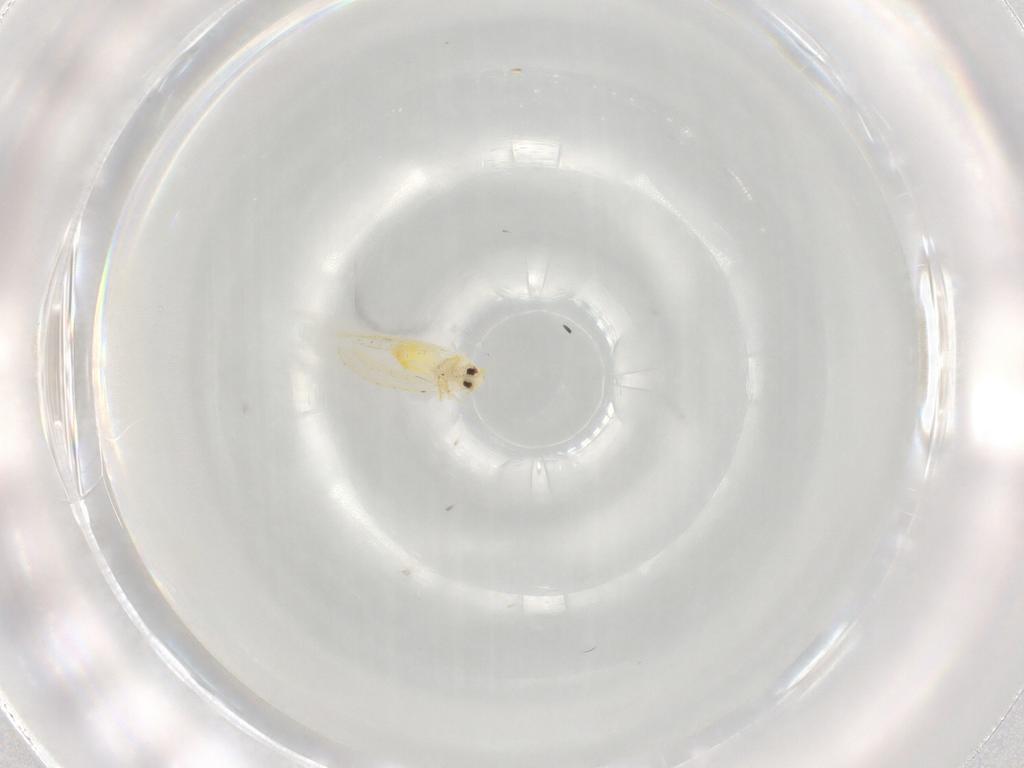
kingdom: Animalia
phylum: Arthropoda
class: Insecta
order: Hemiptera
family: Aleyrodidae
